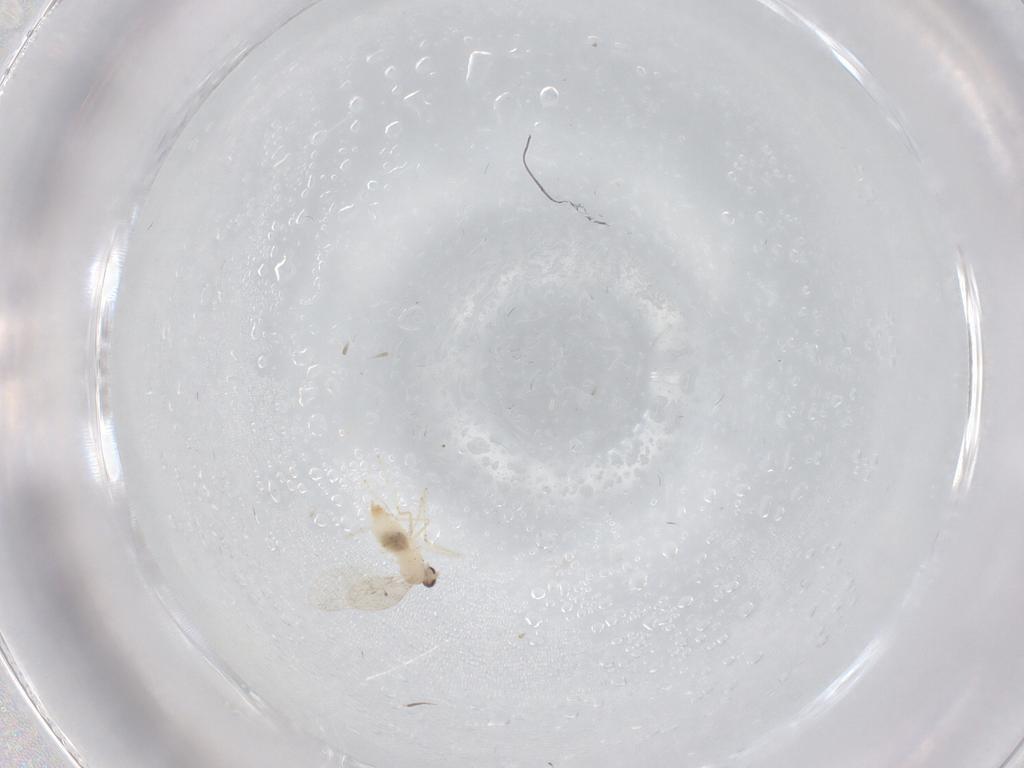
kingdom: Animalia
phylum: Arthropoda
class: Insecta
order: Diptera
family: Cecidomyiidae
